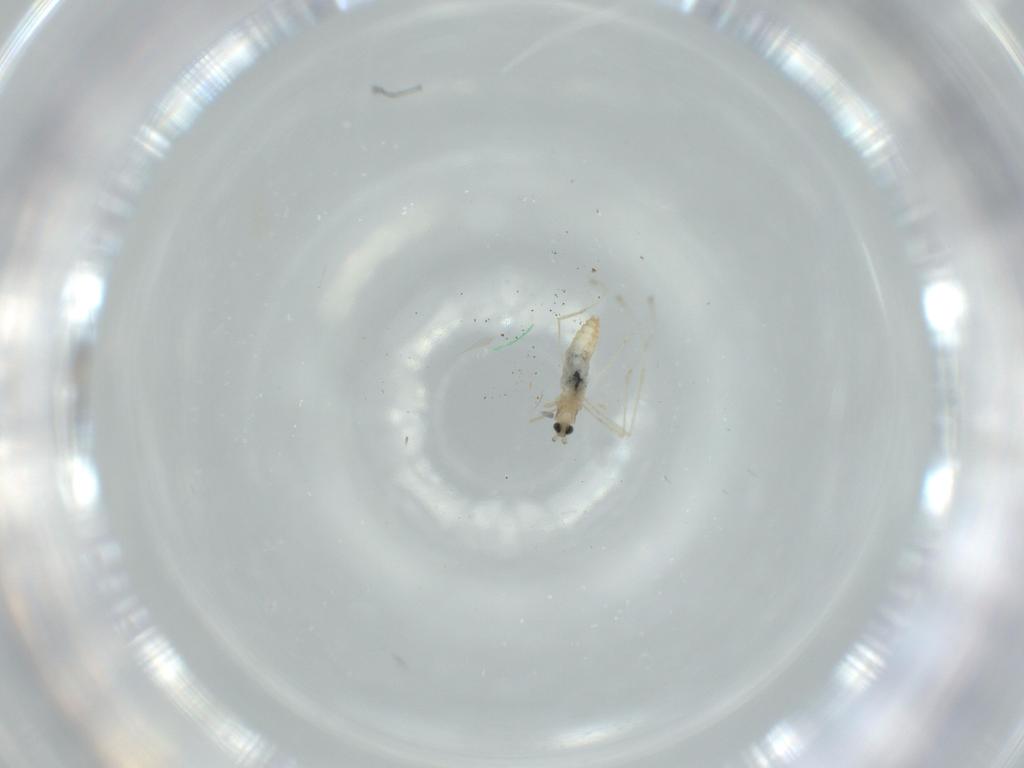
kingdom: Animalia
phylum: Arthropoda
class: Insecta
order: Diptera
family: Cecidomyiidae
